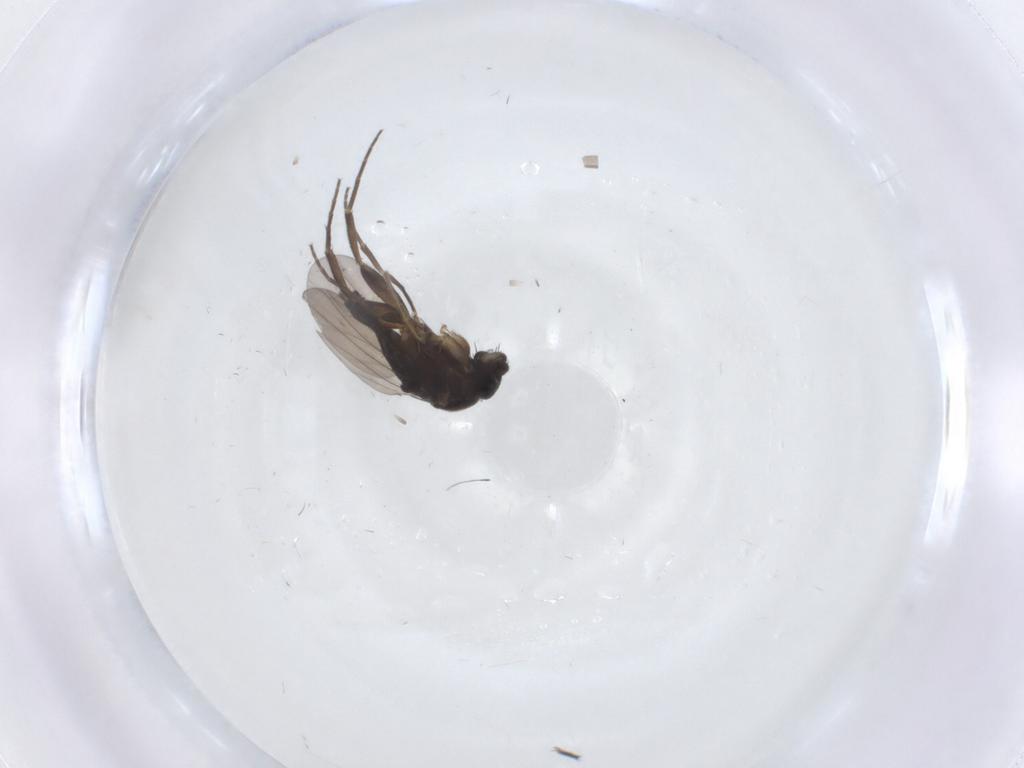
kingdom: Animalia
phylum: Arthropoda
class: Insecta
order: Diptera
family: Phoridae
